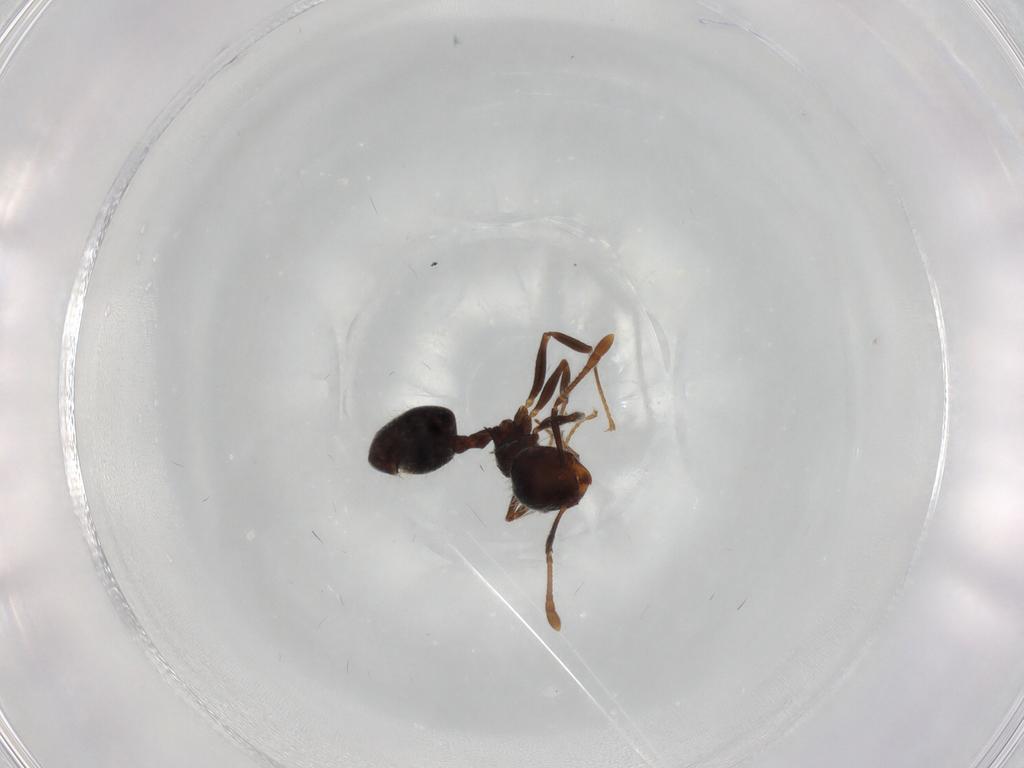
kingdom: Animalia
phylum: Arthropoda
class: Insecta
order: Hymenoptera
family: Formicidae
